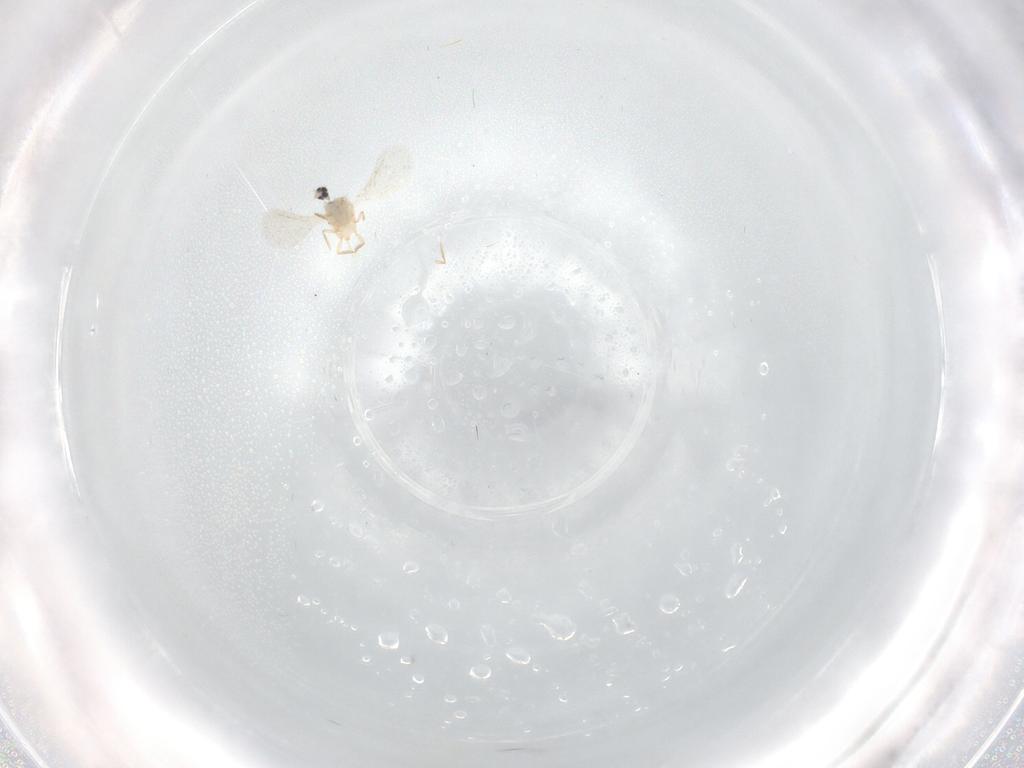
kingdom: Animalia
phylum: Arthropoda
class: Insecta
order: Diptera
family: Cecidomyiidae
